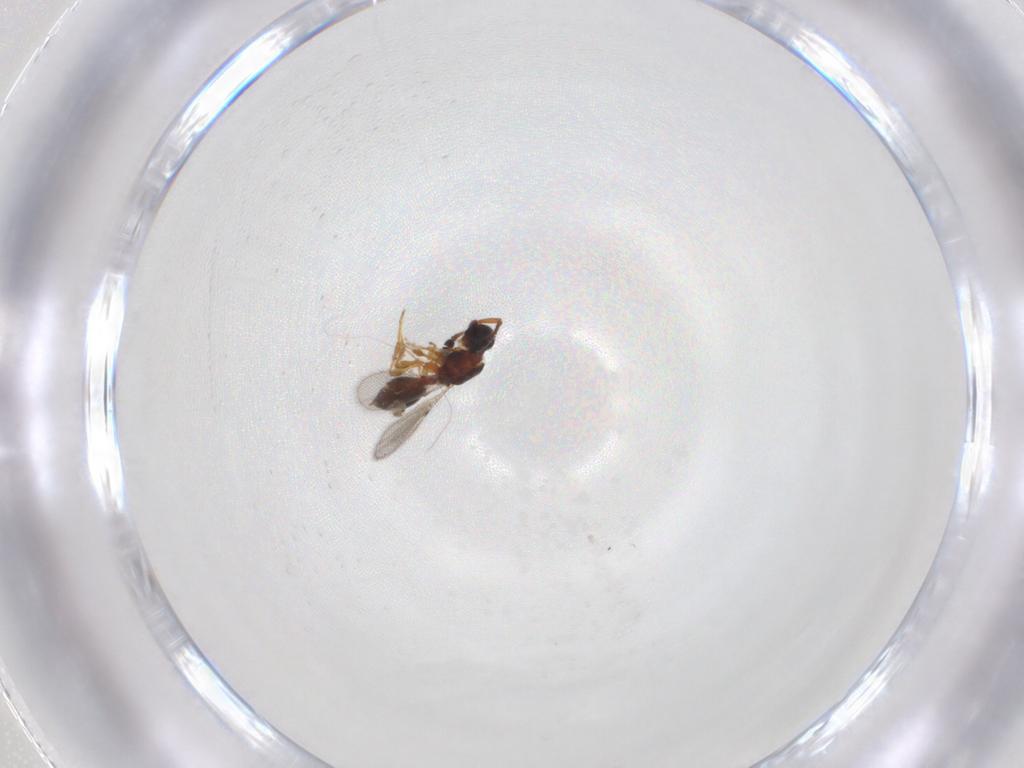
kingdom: Animalia
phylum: Arthropoda
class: Insecta
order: Hymenoptera
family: Diapriidae
